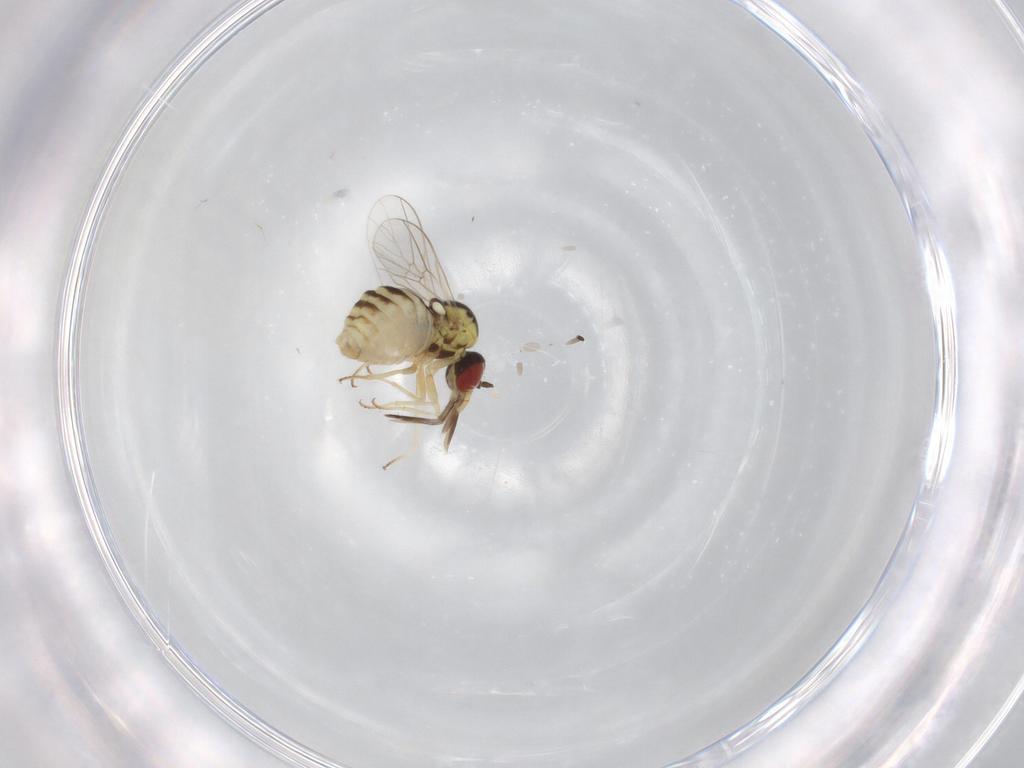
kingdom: Animalia
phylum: Arthropoda
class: Insecta
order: Diptera
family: Bombyliidae
